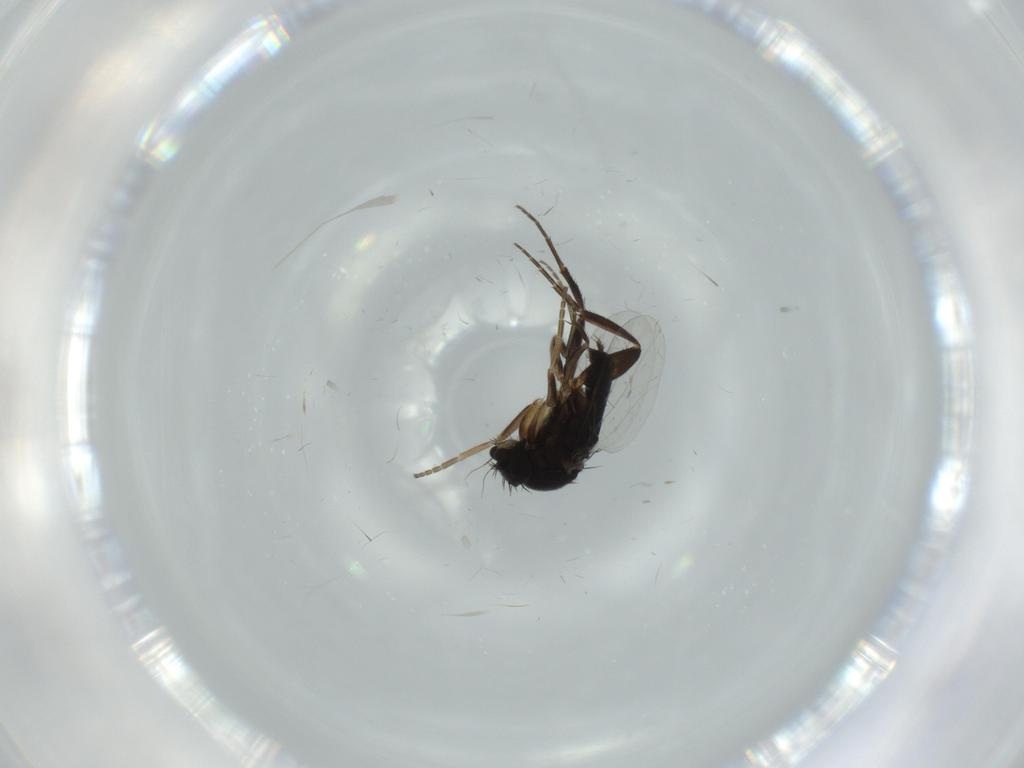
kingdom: Animalia
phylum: Arthropoda
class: Insecta
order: Diptera
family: Phoridae
